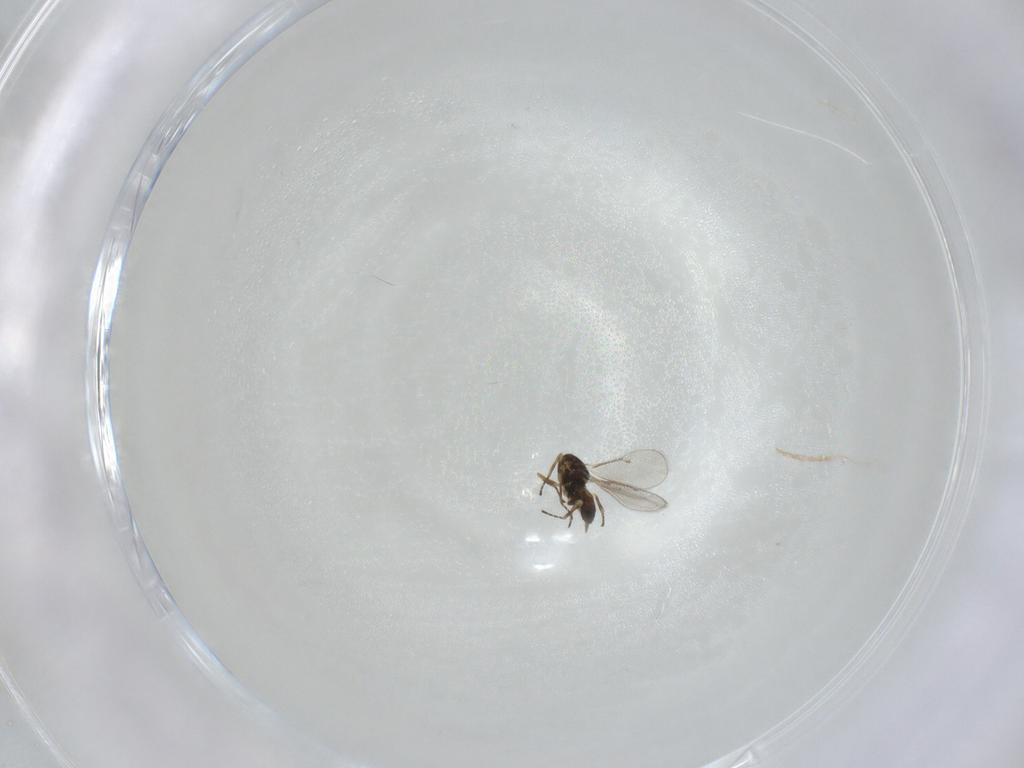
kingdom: Animalia
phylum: Arthropoda
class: Insecta
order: Hymenoptera
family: Eulophidae
